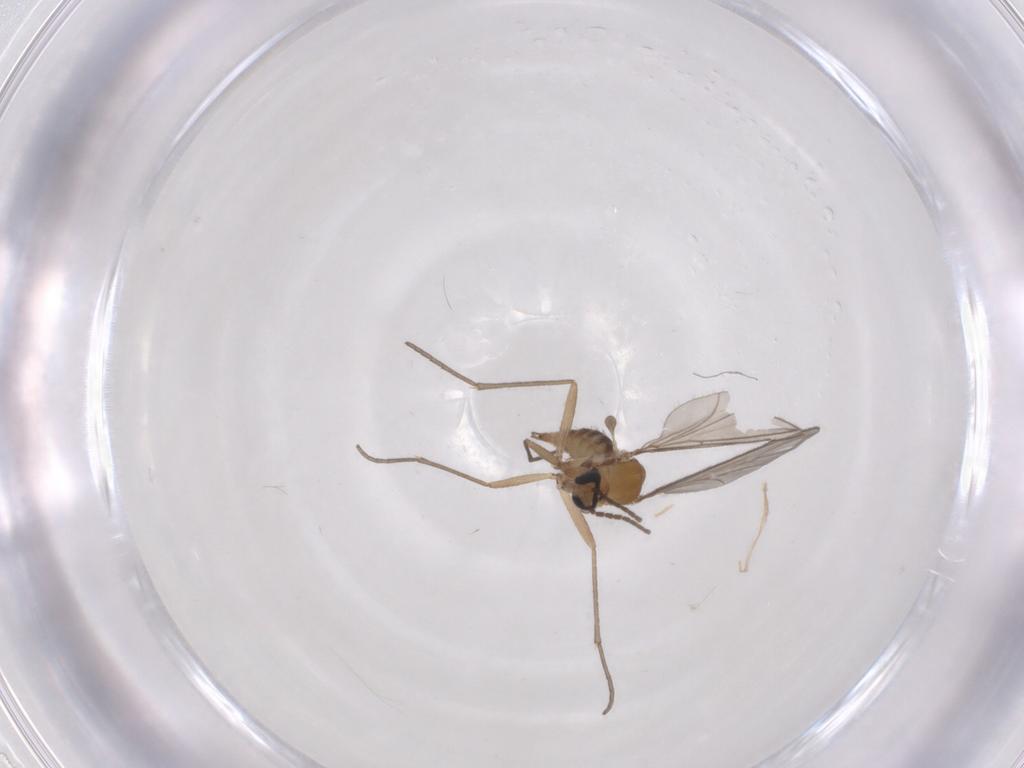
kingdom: Animalia
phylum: Arthropoda
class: Insecta
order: Diptera
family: Sciaridae
